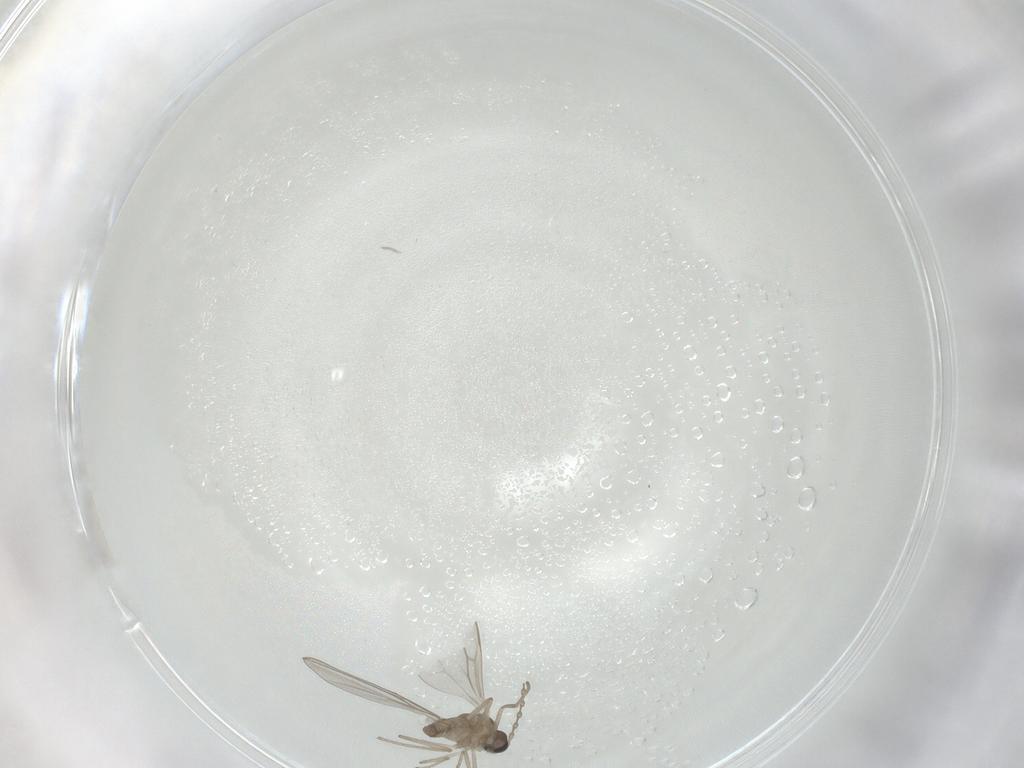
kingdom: Animalia
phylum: Arthropoda
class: Insecta
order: Diptera
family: Cecidomyiidae
